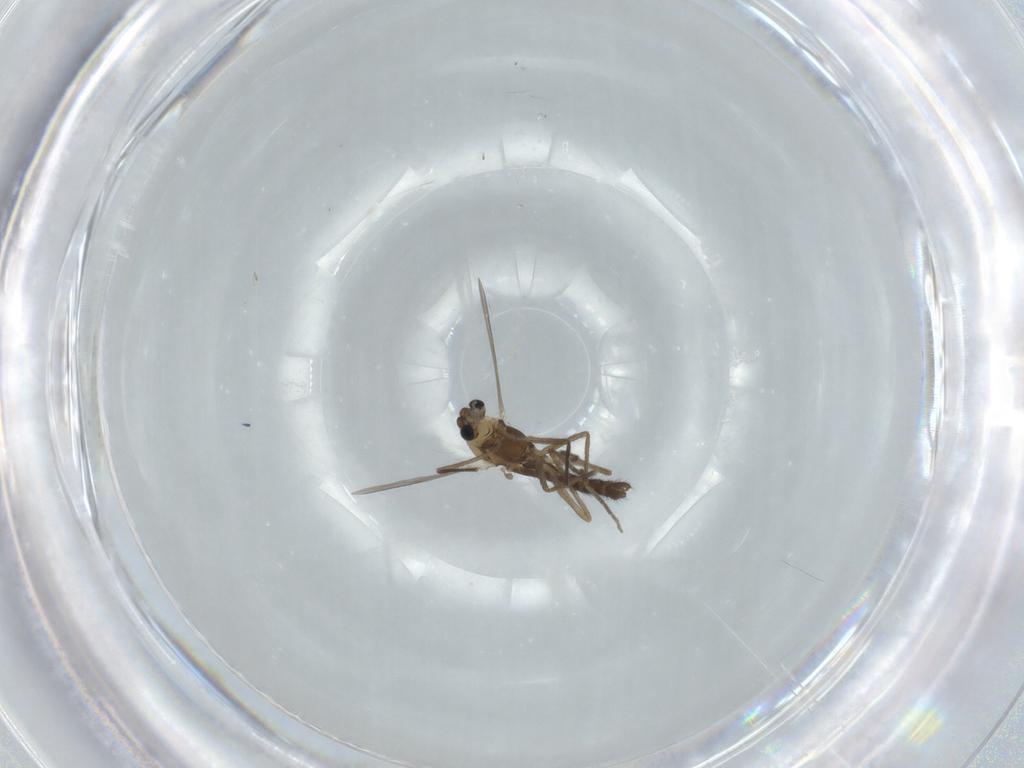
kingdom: Animalia
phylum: Arthropoda
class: Insecta
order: Diptera
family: Chironomidae
